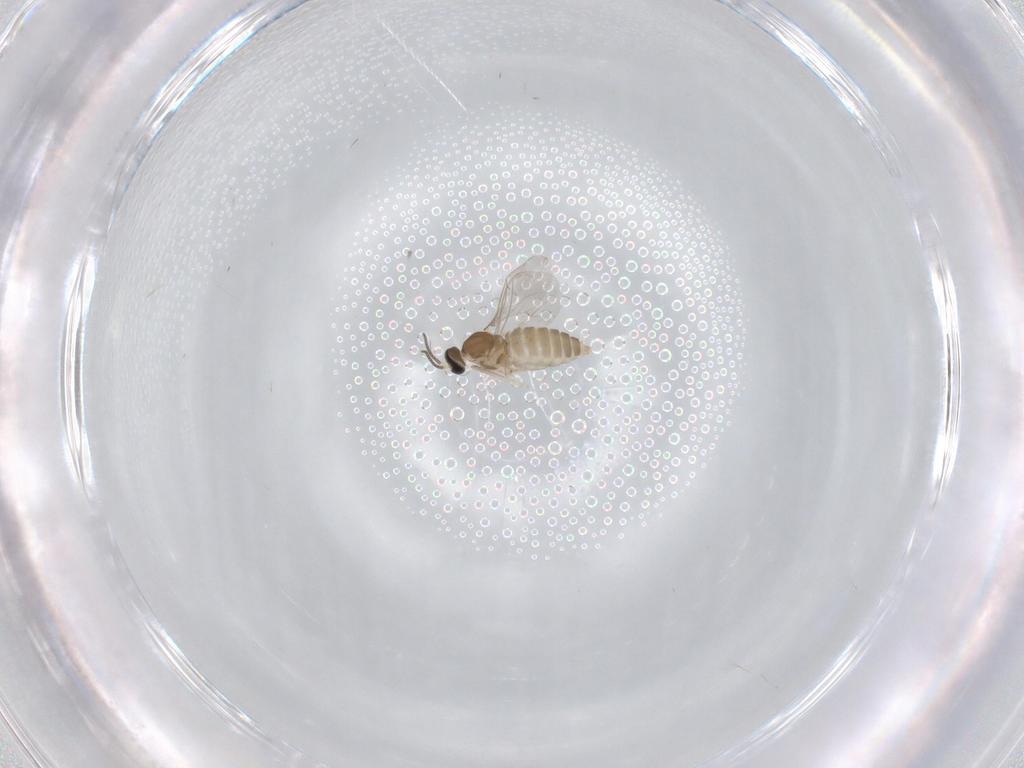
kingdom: Animalia
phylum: Arthropoda
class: Insecta
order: Diptera
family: Cecidomyiidae
